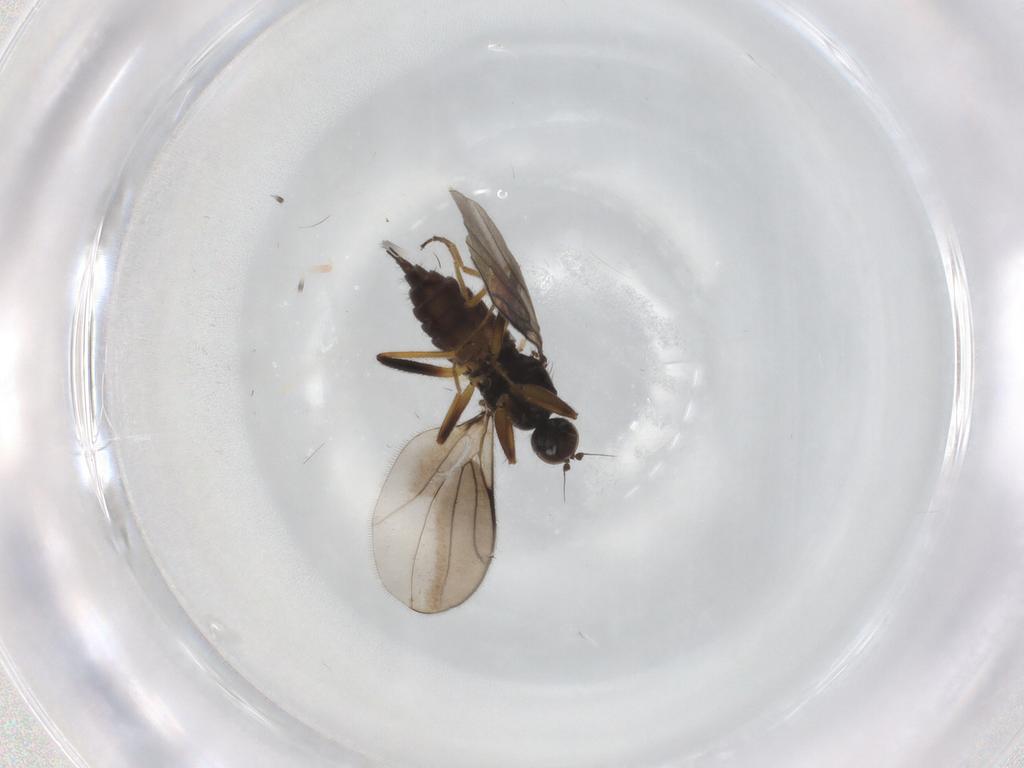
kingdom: Animalia
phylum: Arthropoda
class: Insecta
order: Diptera
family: Hybotidae
